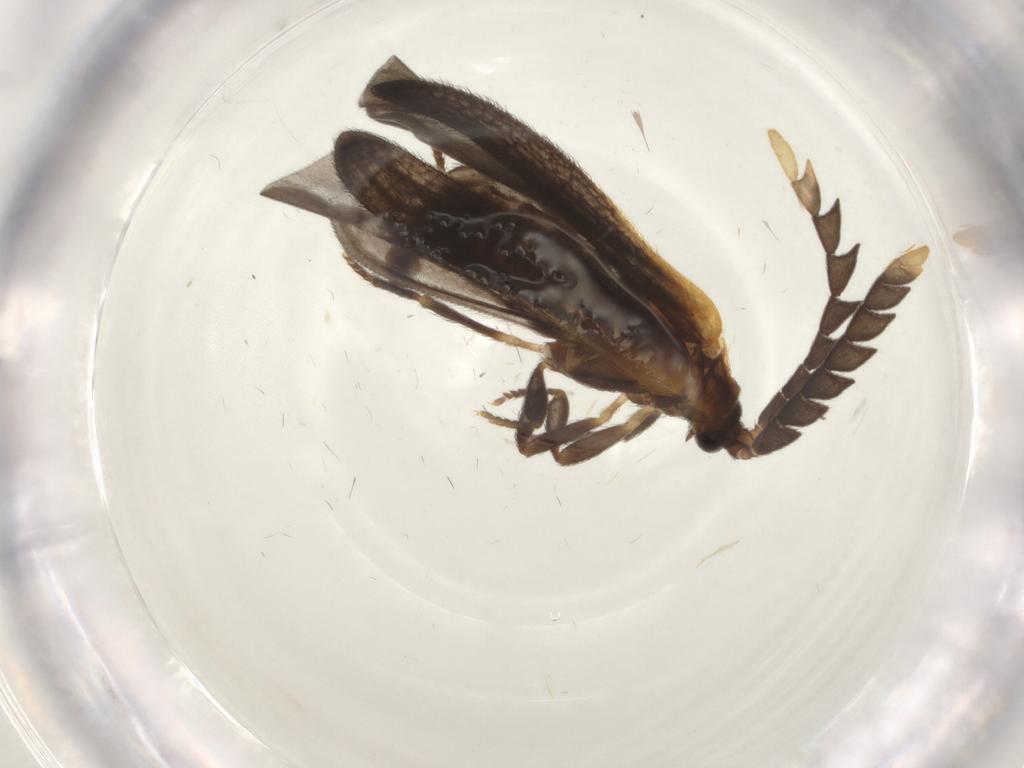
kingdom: Animalia
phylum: Arthropoda
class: Insecta
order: Coleoptera
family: Lycidae
